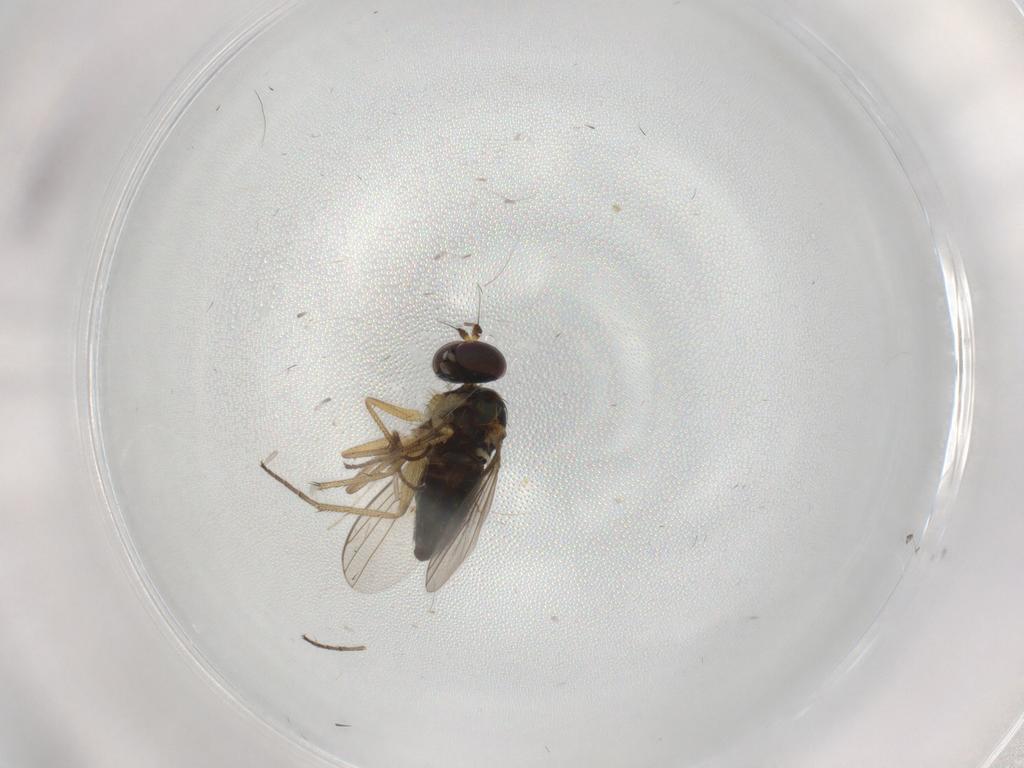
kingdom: Animalia
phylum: Arthropoda
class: Insecta
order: Diptera
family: Chironomidae
